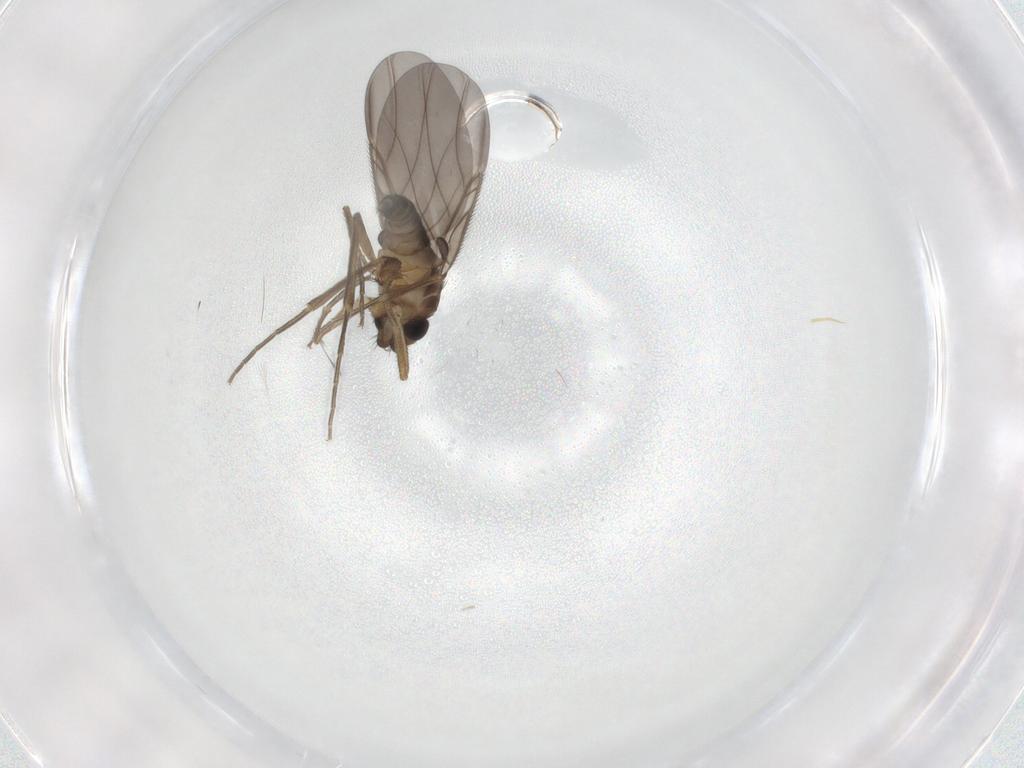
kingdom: Animalia
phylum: Arthropoda
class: Insecta
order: Diptera
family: Phoridae
